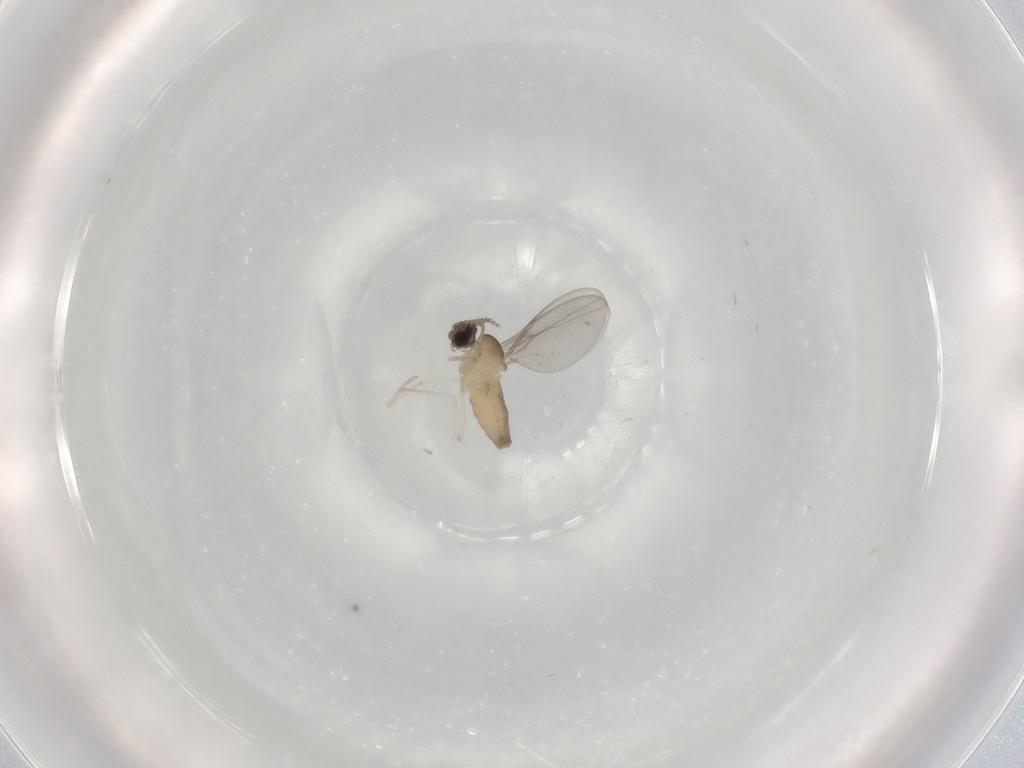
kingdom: Animalia
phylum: Arthropoda
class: Insecta
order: Diptera
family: Cecidomyiidae
